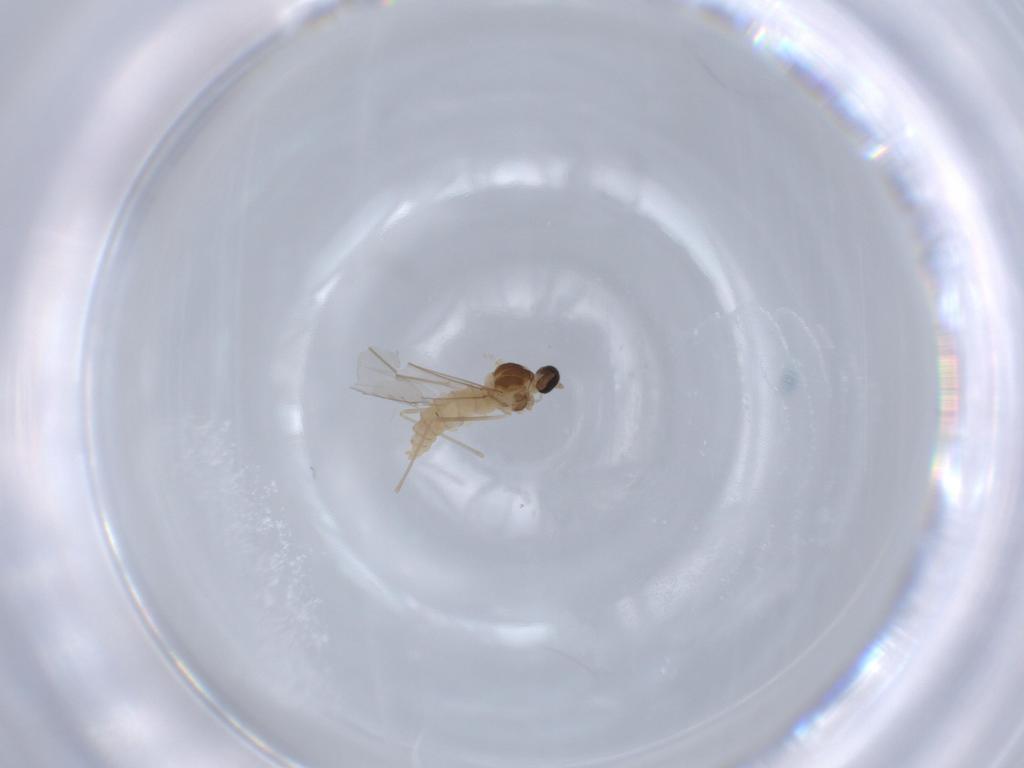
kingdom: Animalia
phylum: Arthropoda
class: Insecta
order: Diptera
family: Cecidomyiidae
